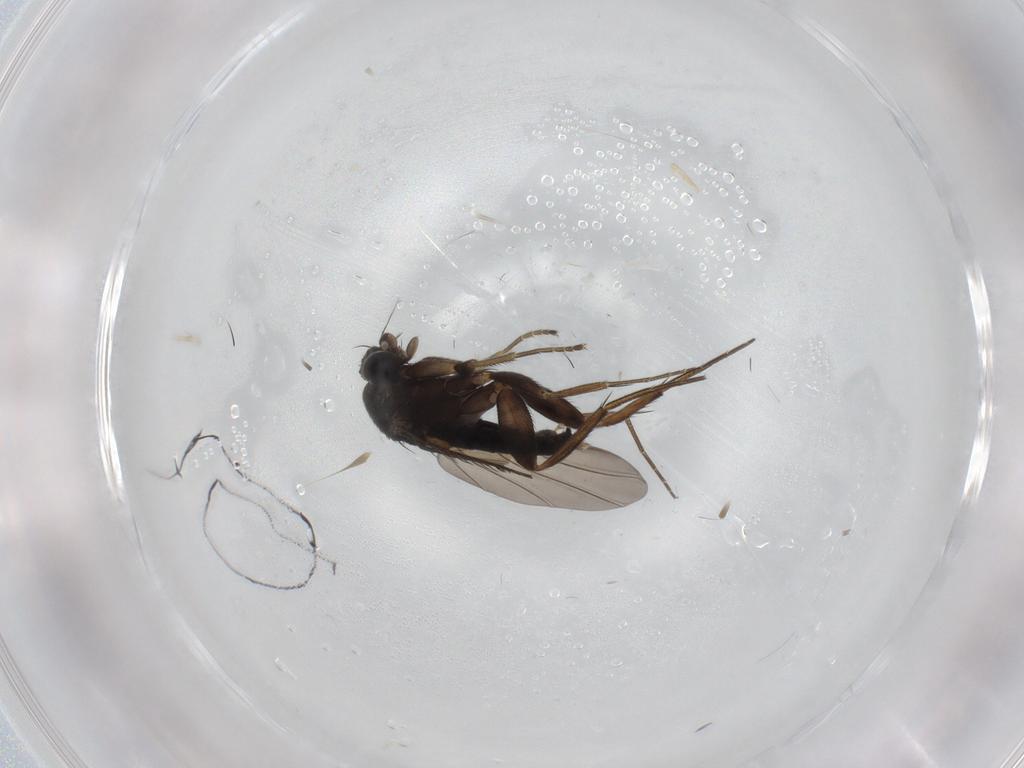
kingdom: Animalia
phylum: Arthropoda
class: Insecta
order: Diptera
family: Phoridae
